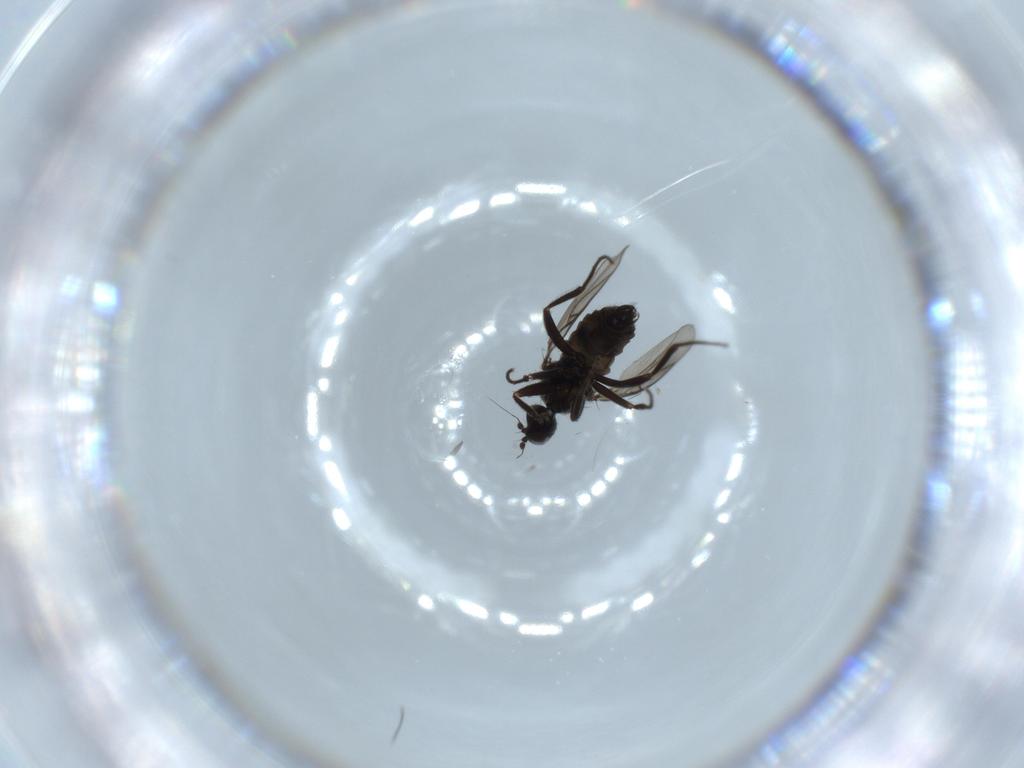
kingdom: Animalia
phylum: Arthropoda
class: Insecta
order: Diptera
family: Hybotidae
